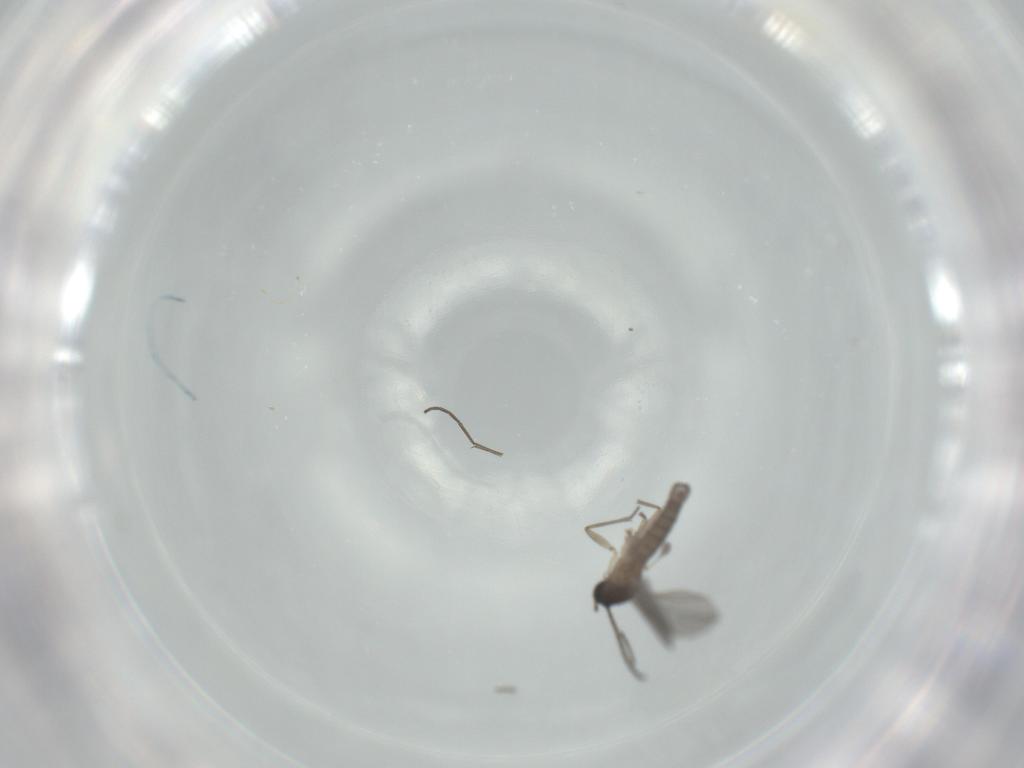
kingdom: Animalia
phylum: Arthropoda
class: Insecta
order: Diptera
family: Sciaridae
